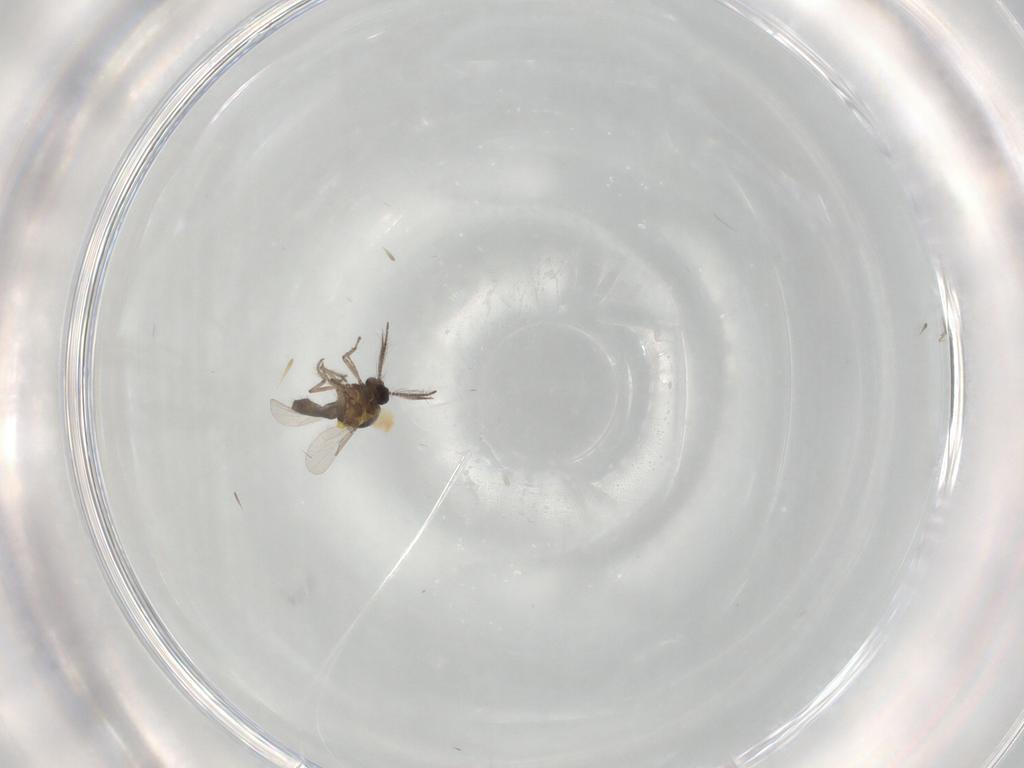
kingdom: Animalia
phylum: Arthropoda
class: Insecta
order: Diptera
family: Ceratopogonidae
